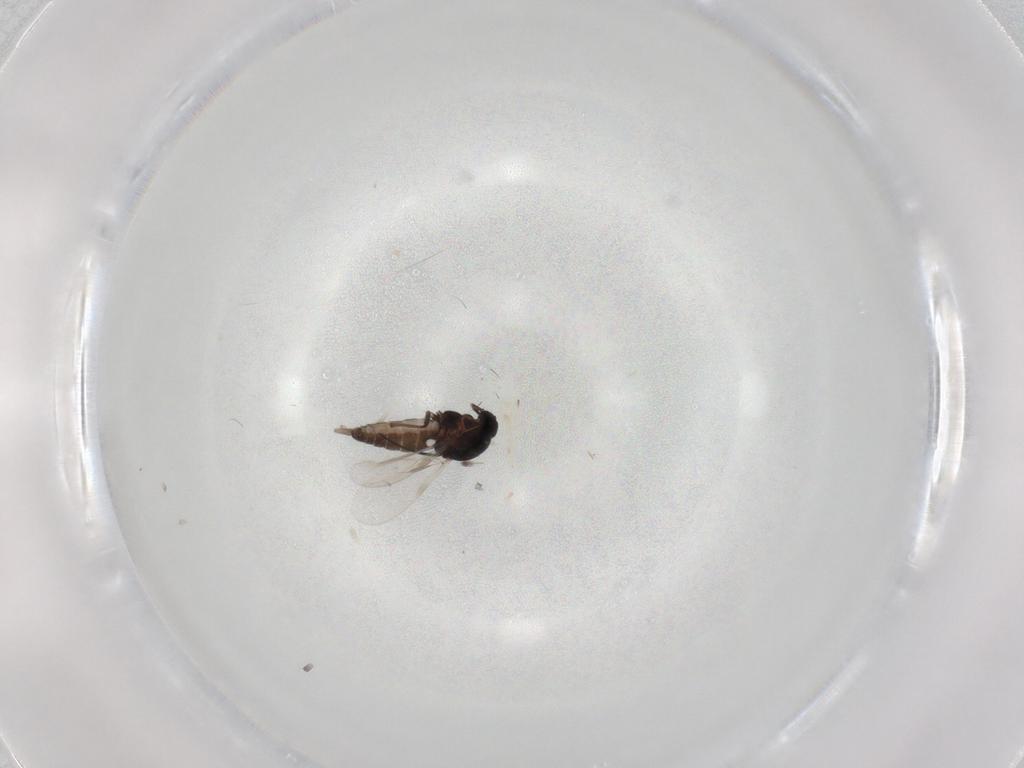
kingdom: Animalia
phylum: Arthropoda
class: Insecta
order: Diptera
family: Ceratopogonidae
